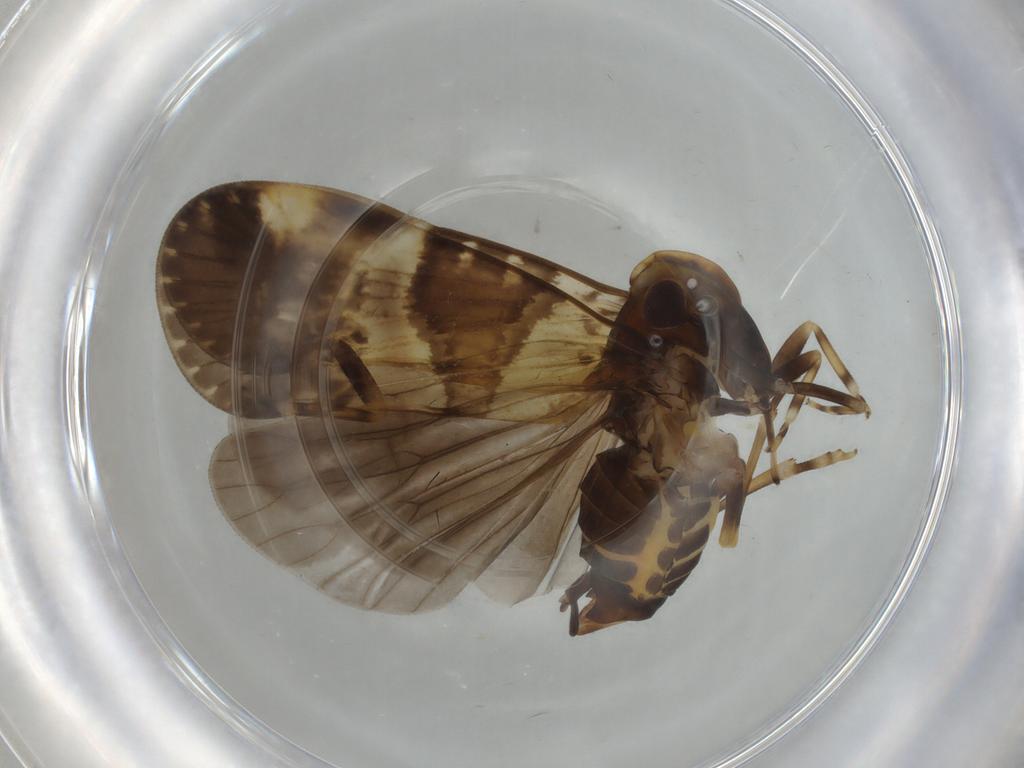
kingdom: Animalia
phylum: Arthropoda
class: Insecta
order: Hemiptera
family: Cixiidae
